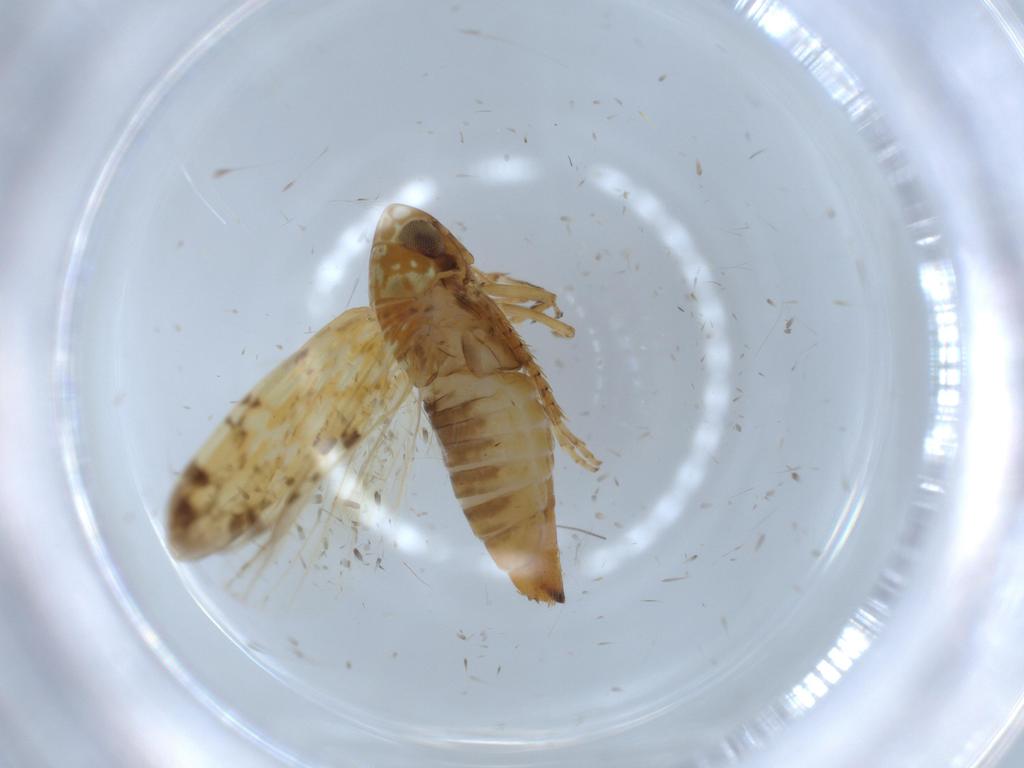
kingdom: Animalia
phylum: Arthropoda
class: Insecta
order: Hemiptera
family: Cicadellidae
